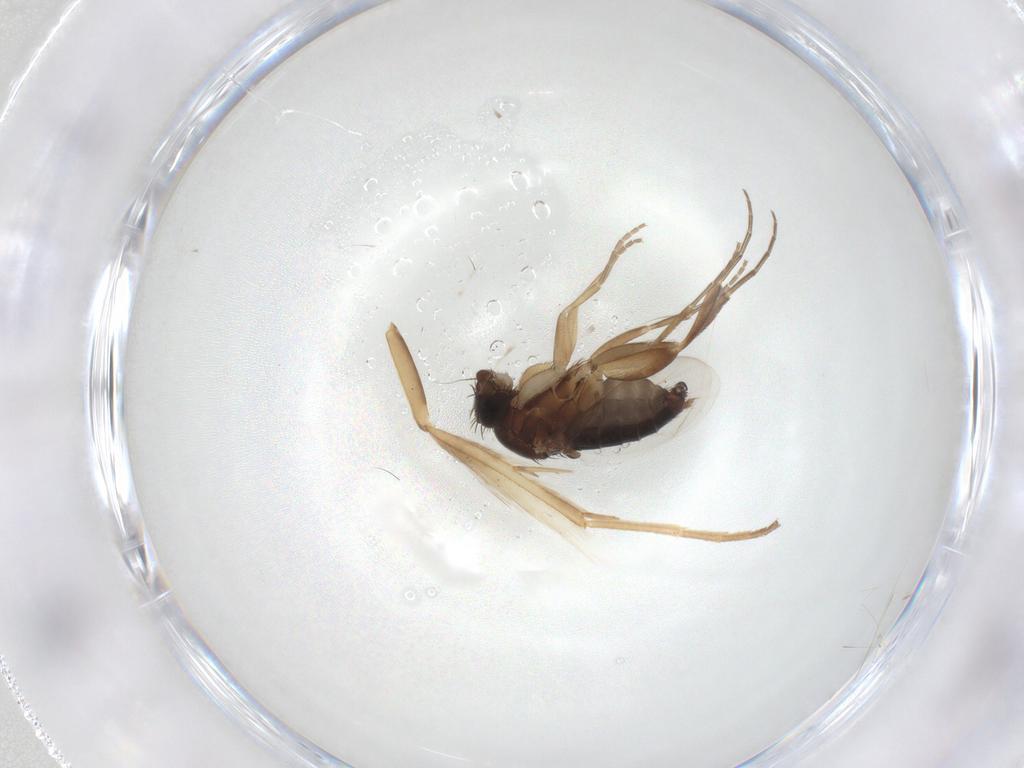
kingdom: Animalia
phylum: Arthropoda
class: Insecta
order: Diptera
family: Phoridae
